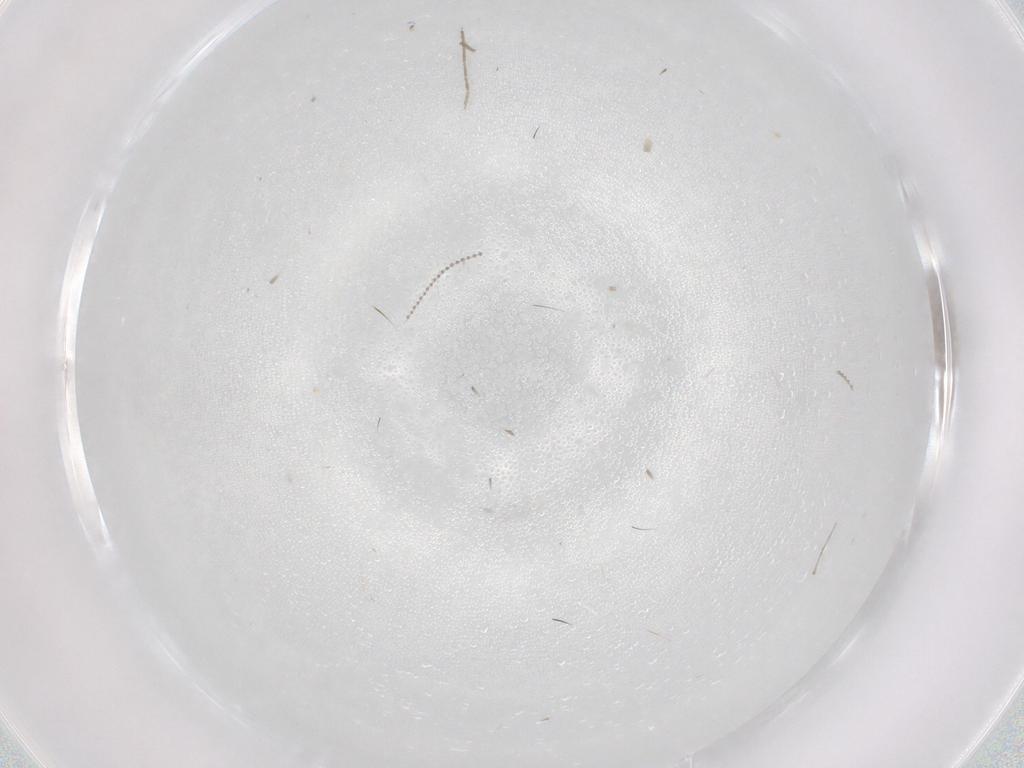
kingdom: Animalia
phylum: Arthropoda
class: Insecta
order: Diptera
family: Cecidomyiidae
